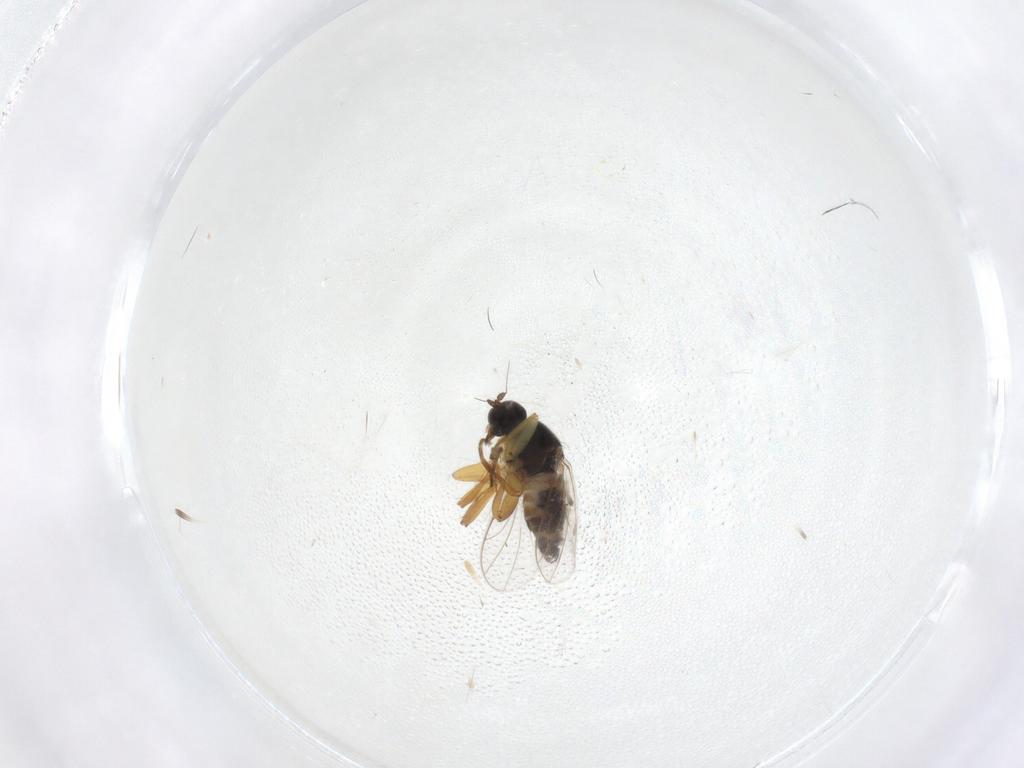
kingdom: Animalia
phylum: Arthropoda
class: Insecta
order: Diptera
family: Hybotidae
